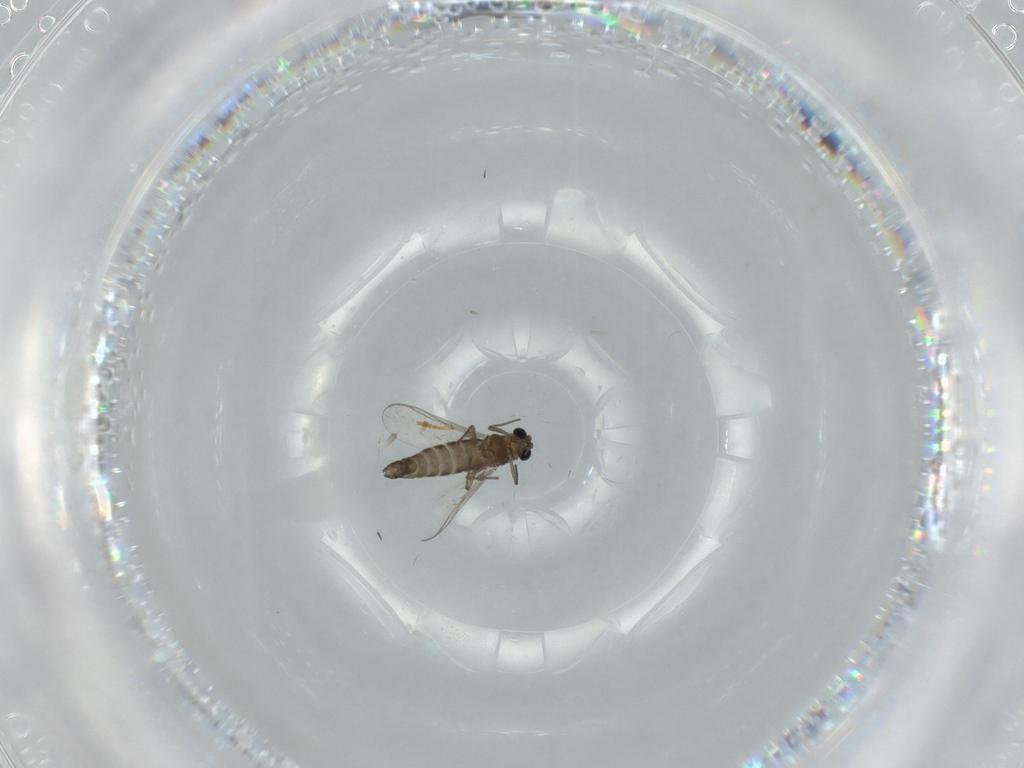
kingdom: Animalia
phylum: Arthropoda
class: Insecta
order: Diptera
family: Chironomidae
